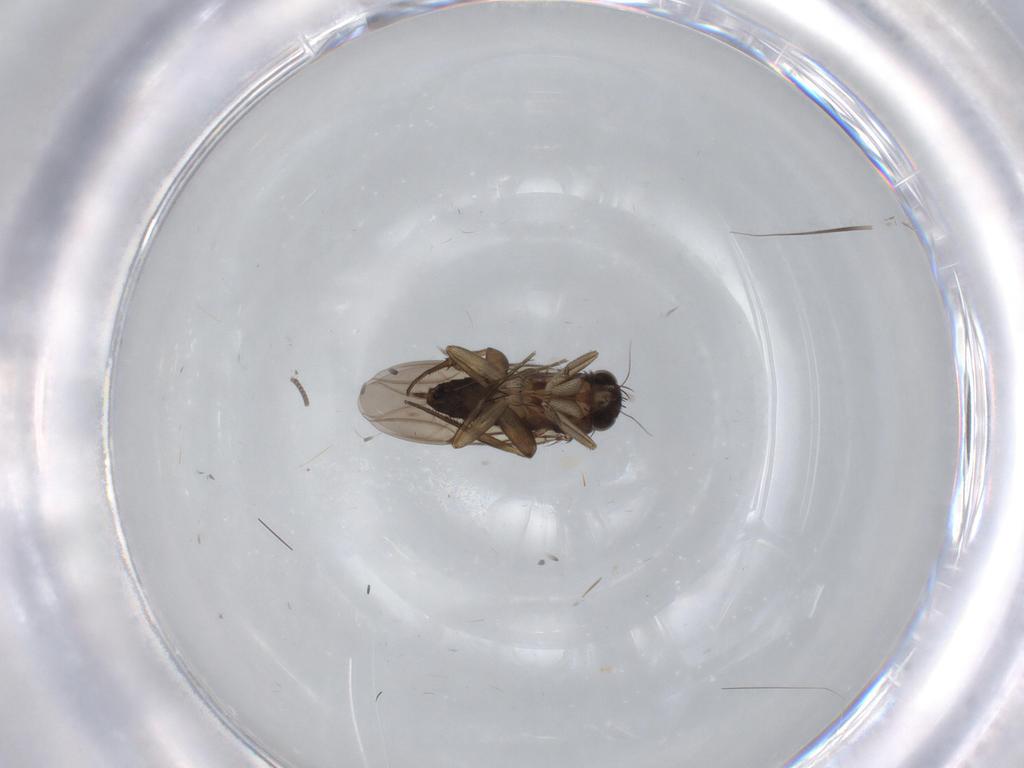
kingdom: Animalia
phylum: Arthropoda
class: Insecta
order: Diptera
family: Cecidomyiidae
